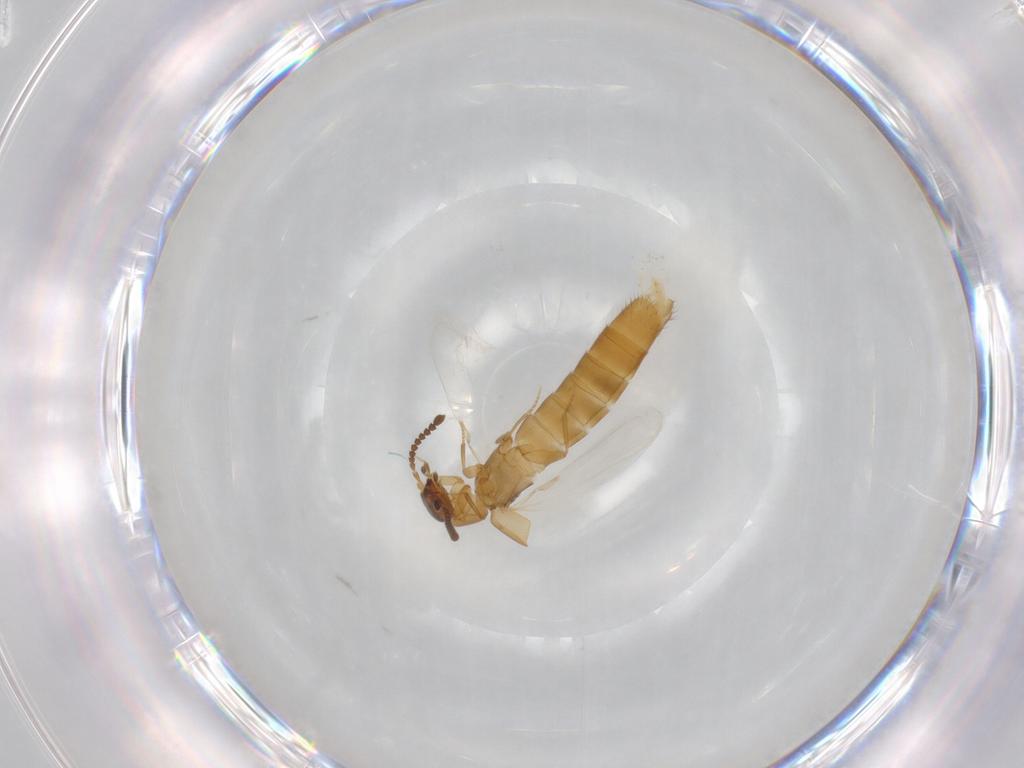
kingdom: Animalia
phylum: Arthropoda
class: Insecta
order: Coleoptera
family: Staphylinidae
